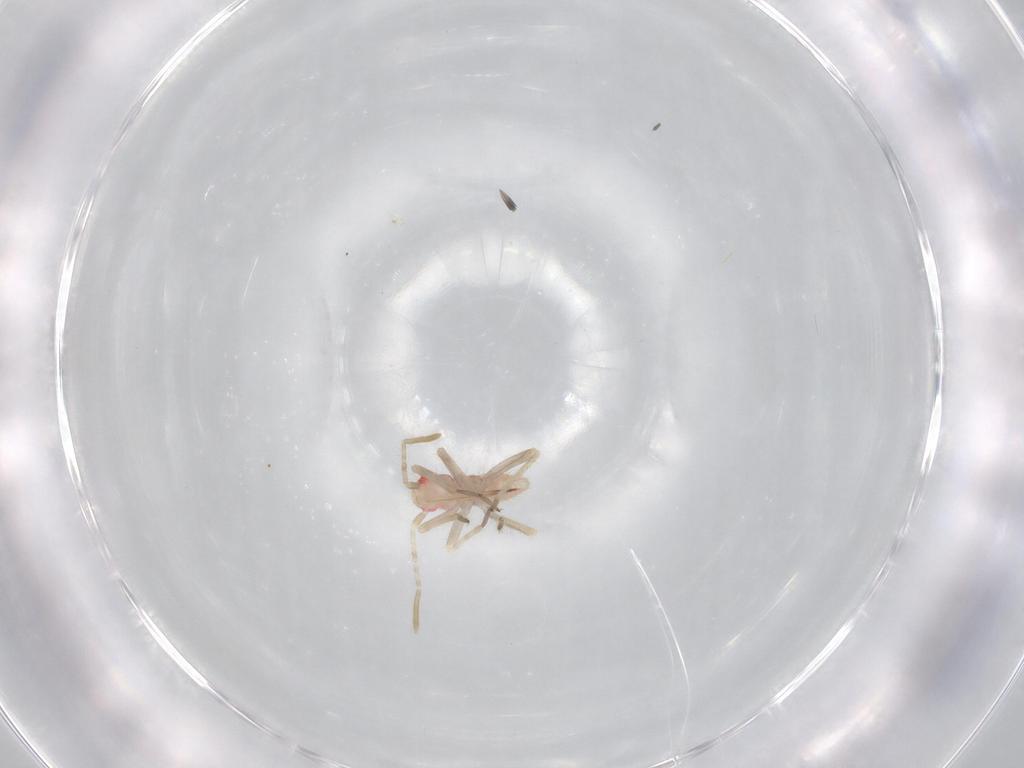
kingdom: Animalia
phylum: Arthropoda
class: Insecta
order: Hemiptera
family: Miridae
